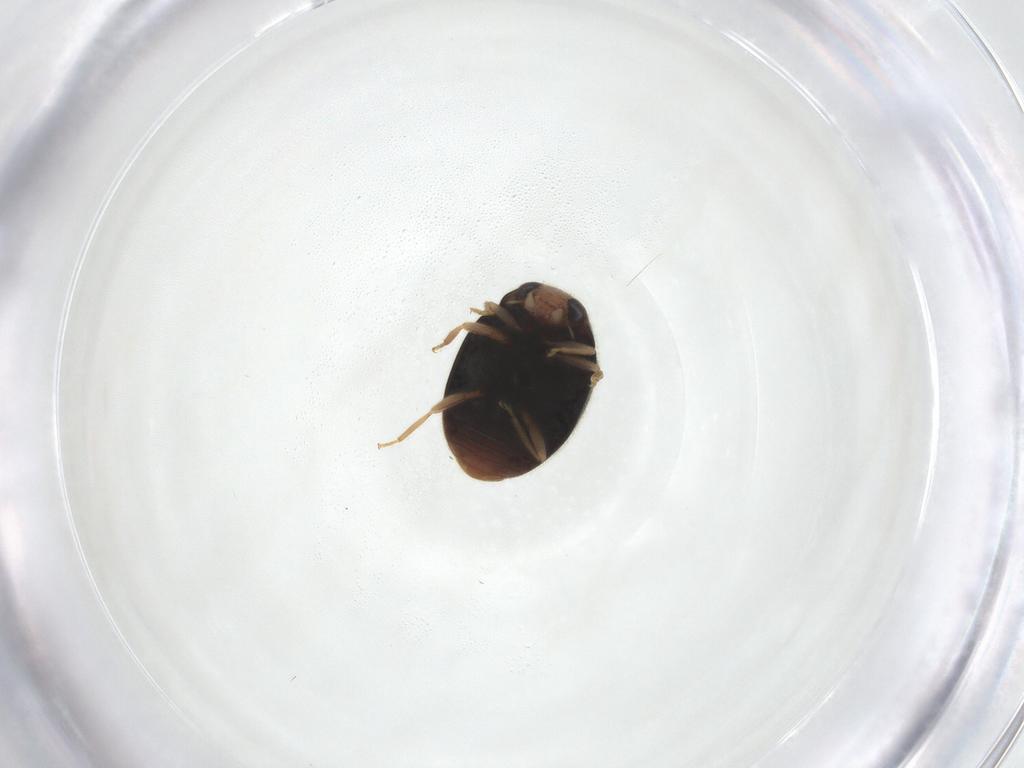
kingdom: Animalia
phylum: Arthropoda
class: Insecta
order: Coleoptera
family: Coccinellidae
